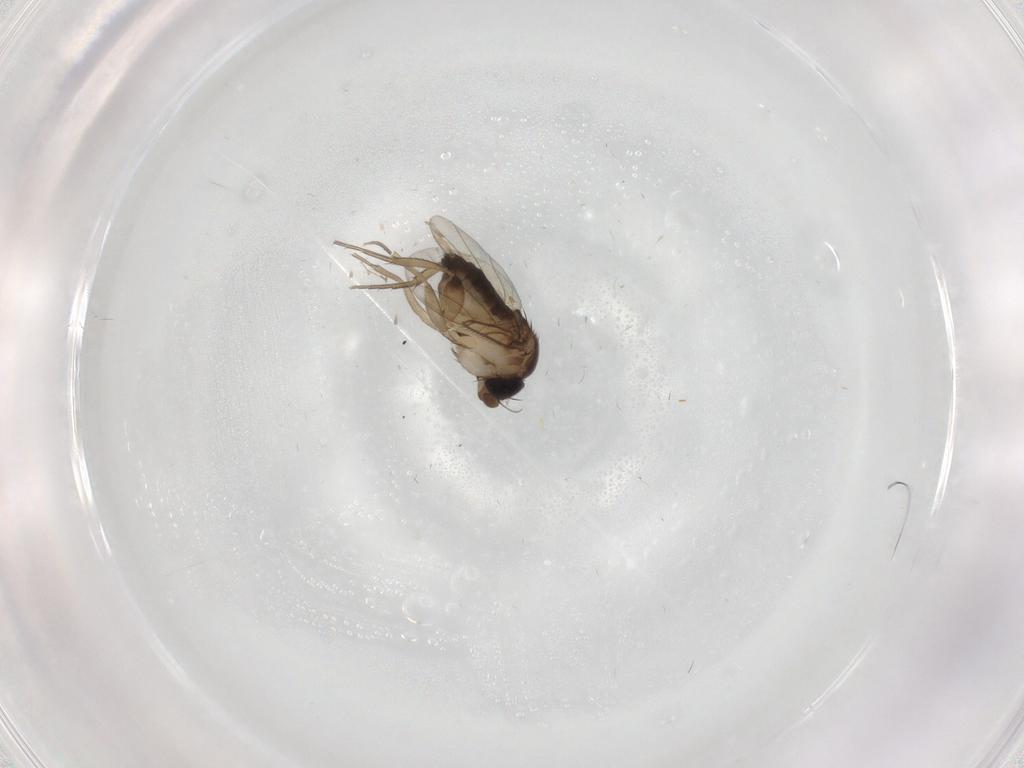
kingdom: Animalia
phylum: Arthropoda
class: Insecta
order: Diptera
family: Phoridae
